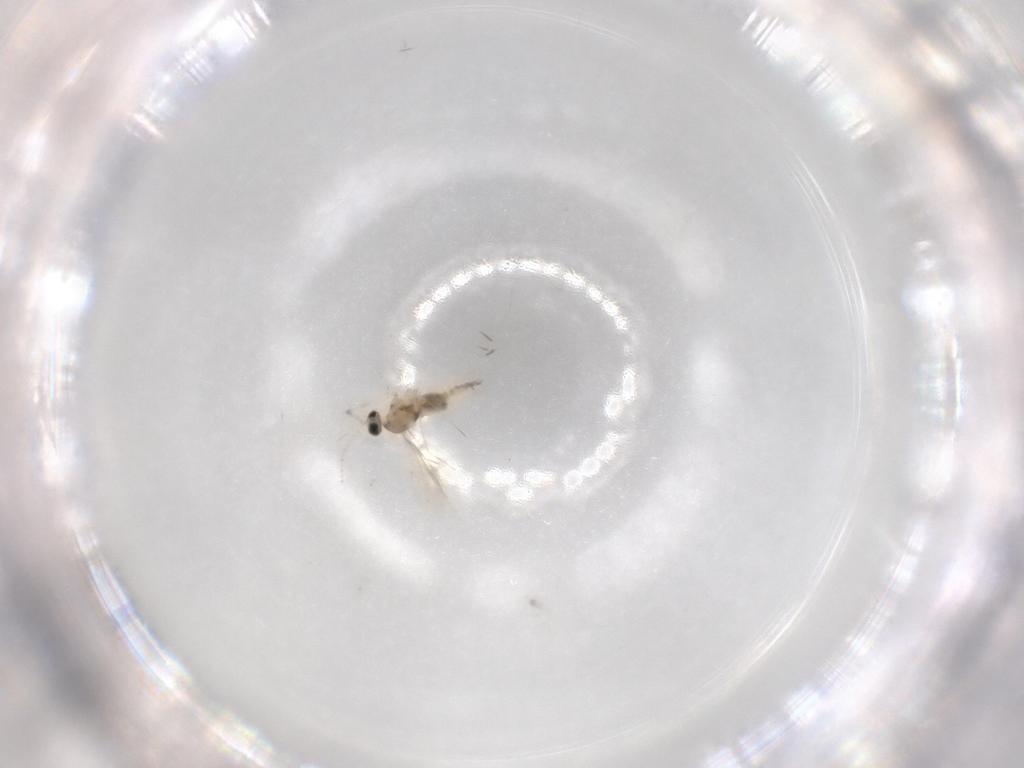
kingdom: Animalia
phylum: Arthropoda
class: Insecta
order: Diptera
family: Cecidomyiidae
